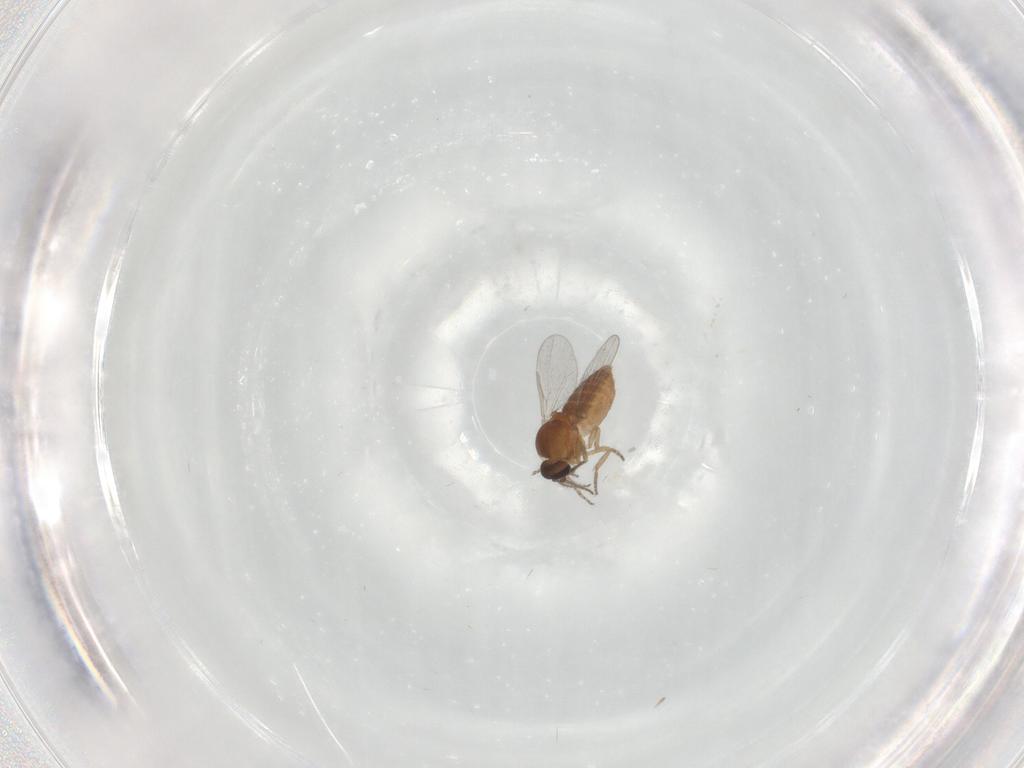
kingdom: Animalia
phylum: Arthropoda
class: Insecta
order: Diptera
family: Ceratopogonidae
